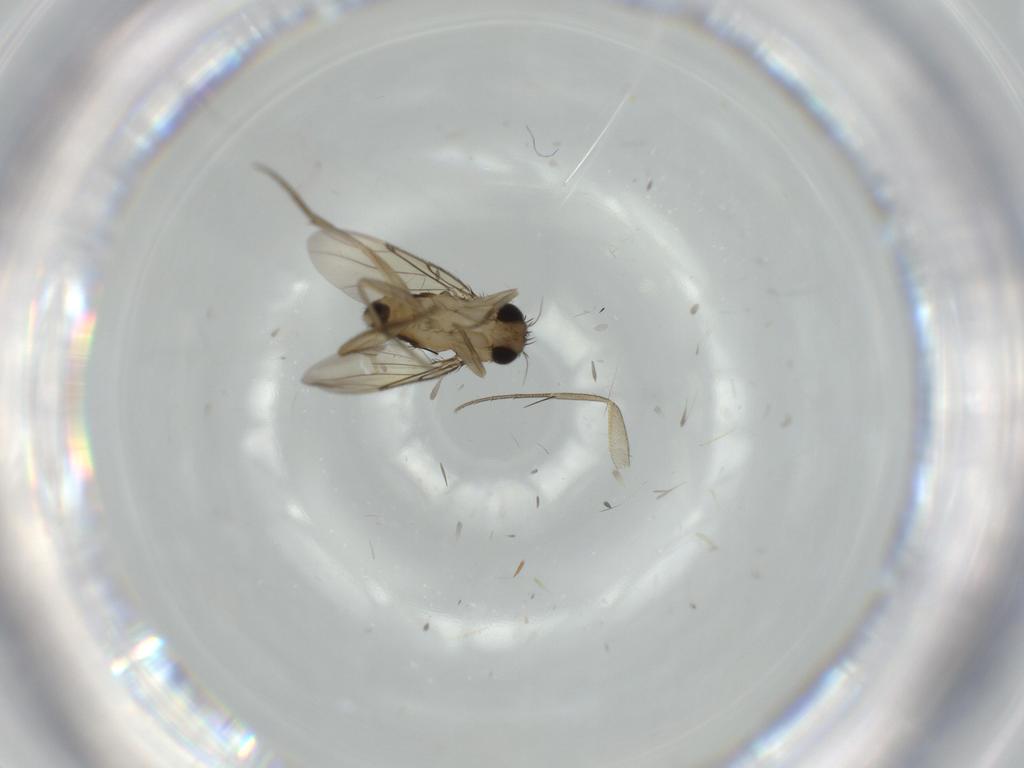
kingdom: Animalia
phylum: Arthropoda
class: Insecta
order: Diptera
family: Phoridae
